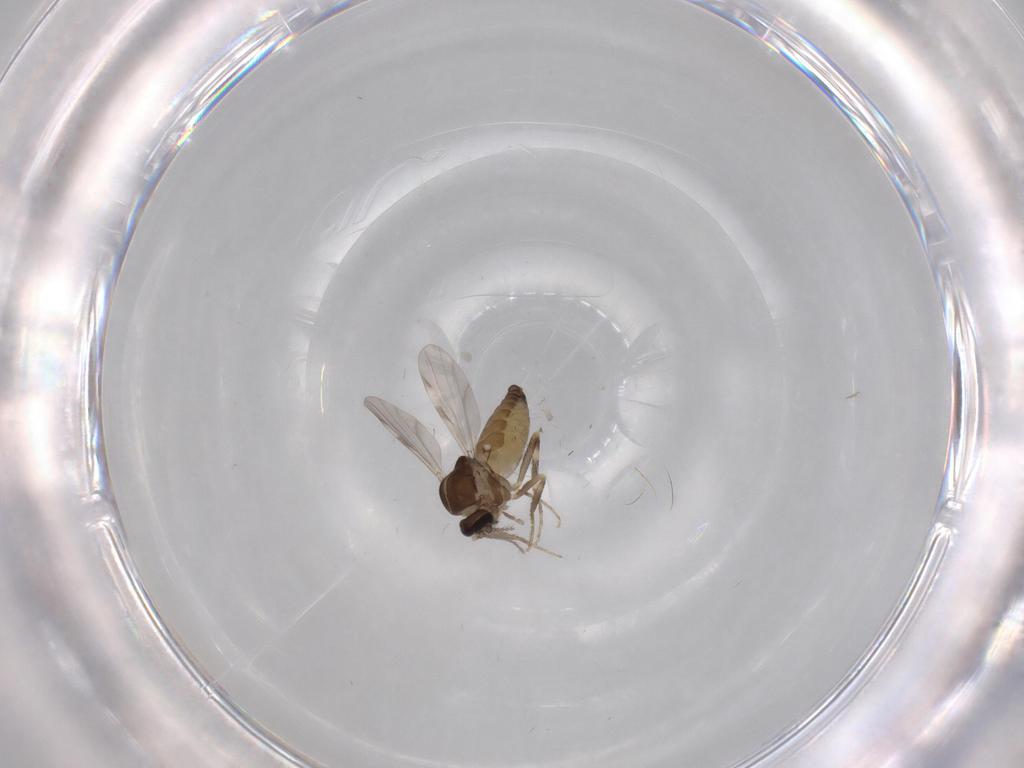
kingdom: Animalia
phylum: Arthropoda
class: Insecta
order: Diptera
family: Ceratopogonidae
